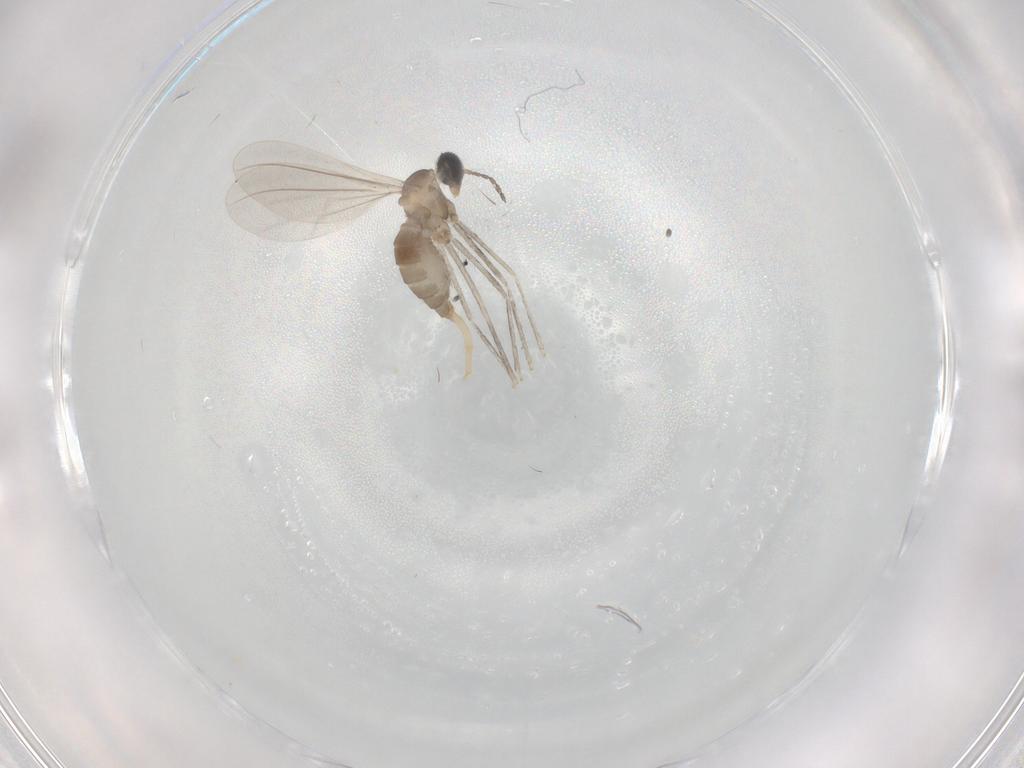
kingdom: Animalia
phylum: Arthropoda
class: Insecta
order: Diptera
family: Cecidomyiidae
